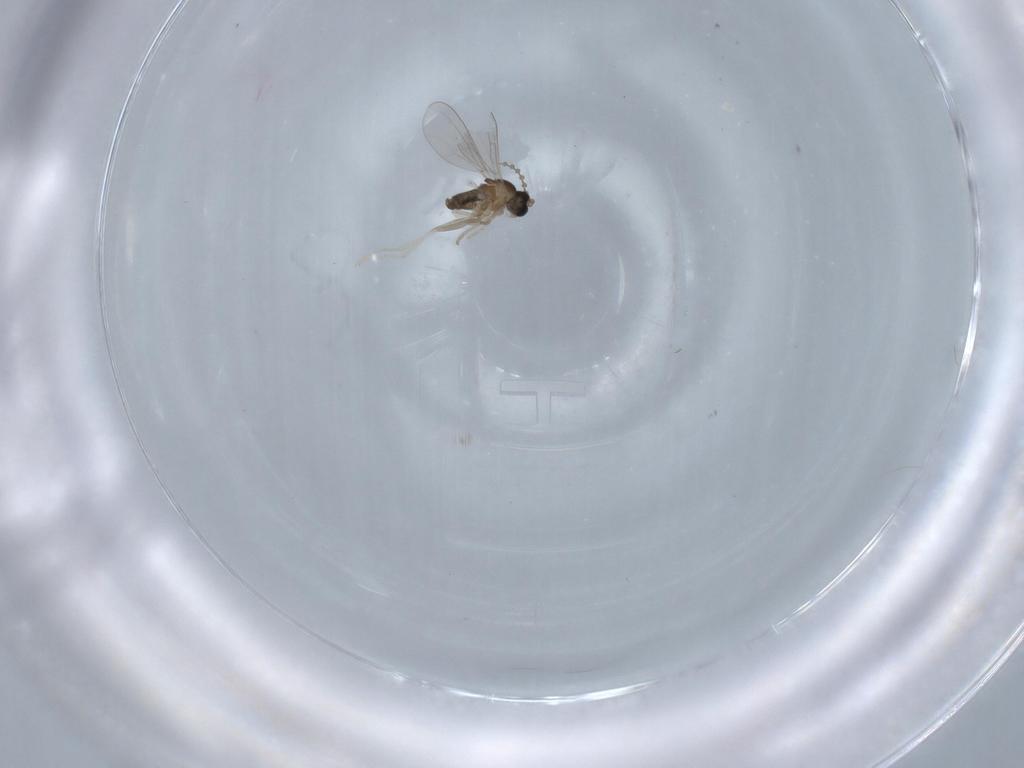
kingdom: Animalia
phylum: Arthropoda
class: Insecta
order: Diptera
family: Cecidomyiidae
